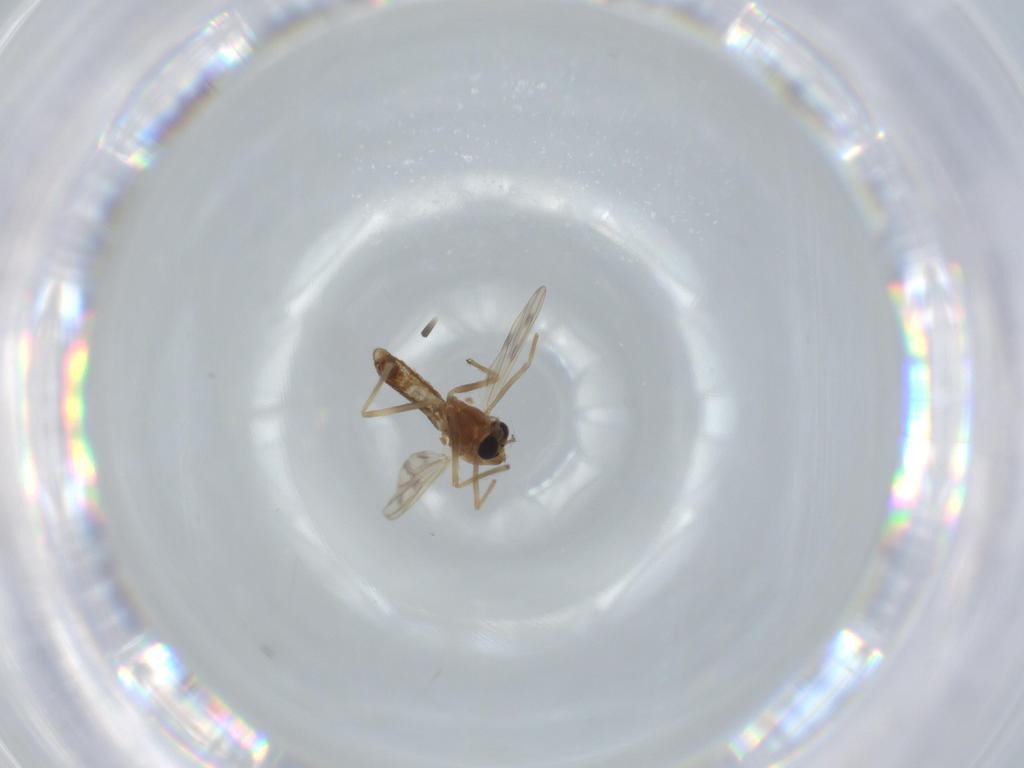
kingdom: Animalia
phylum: Arthropoda
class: Insecta
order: Diptera
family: Chironomidae
